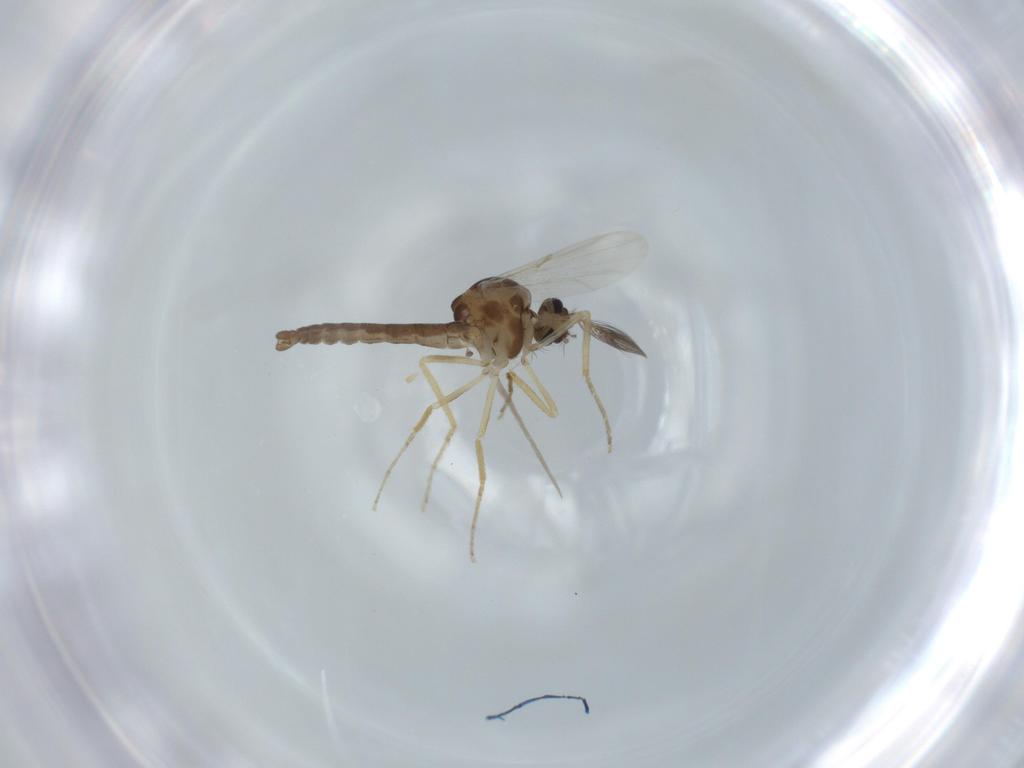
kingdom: Animalia
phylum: Arthropoda
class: Insecta
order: Diptera
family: Ceratopogonidae
